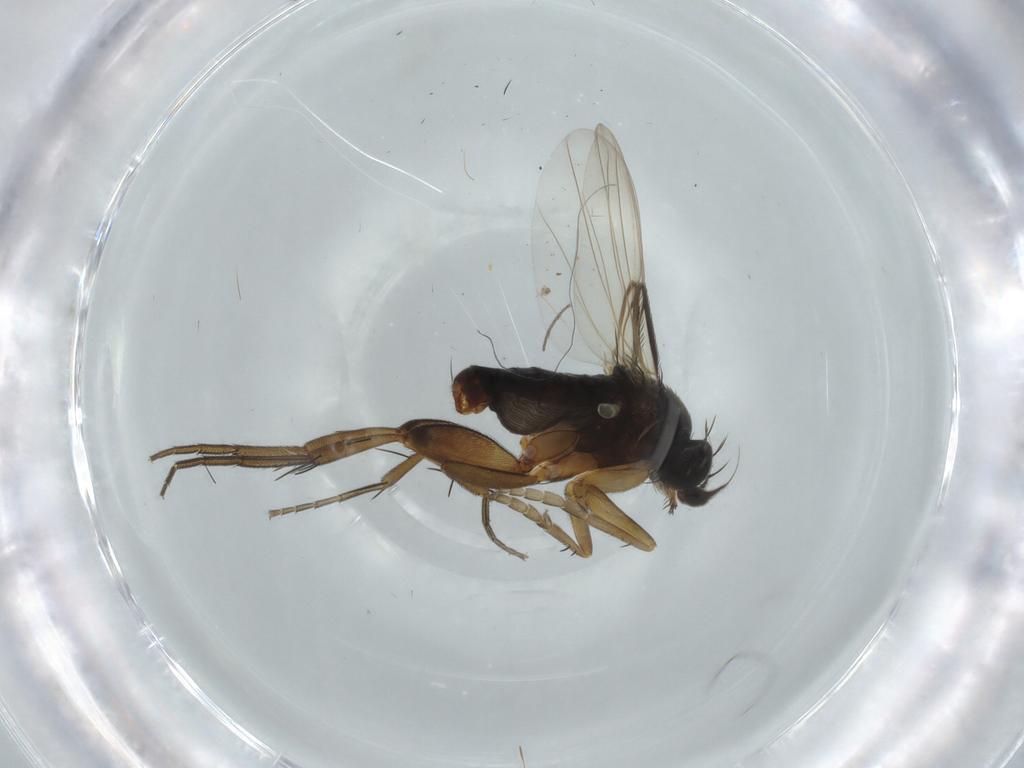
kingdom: Animalia
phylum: Arthropoda
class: Insecta
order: Diptera
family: Phoridae
